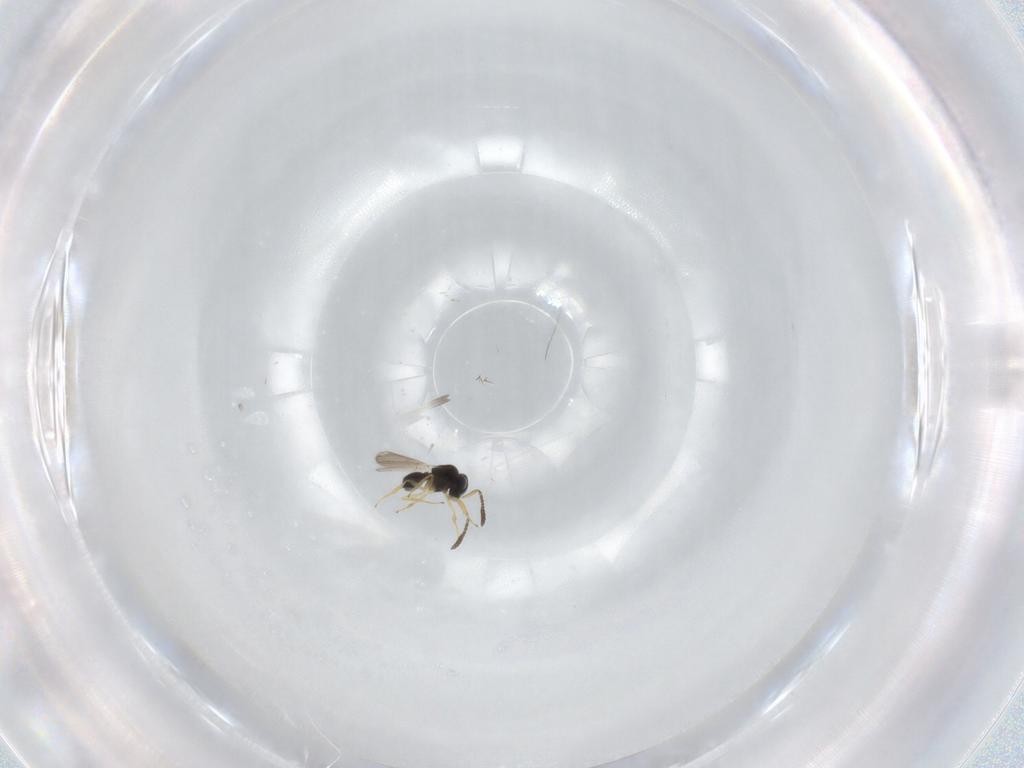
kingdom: Animalia
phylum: Arthropoda
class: Insecta
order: Hymenoptera
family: Scelionidae
